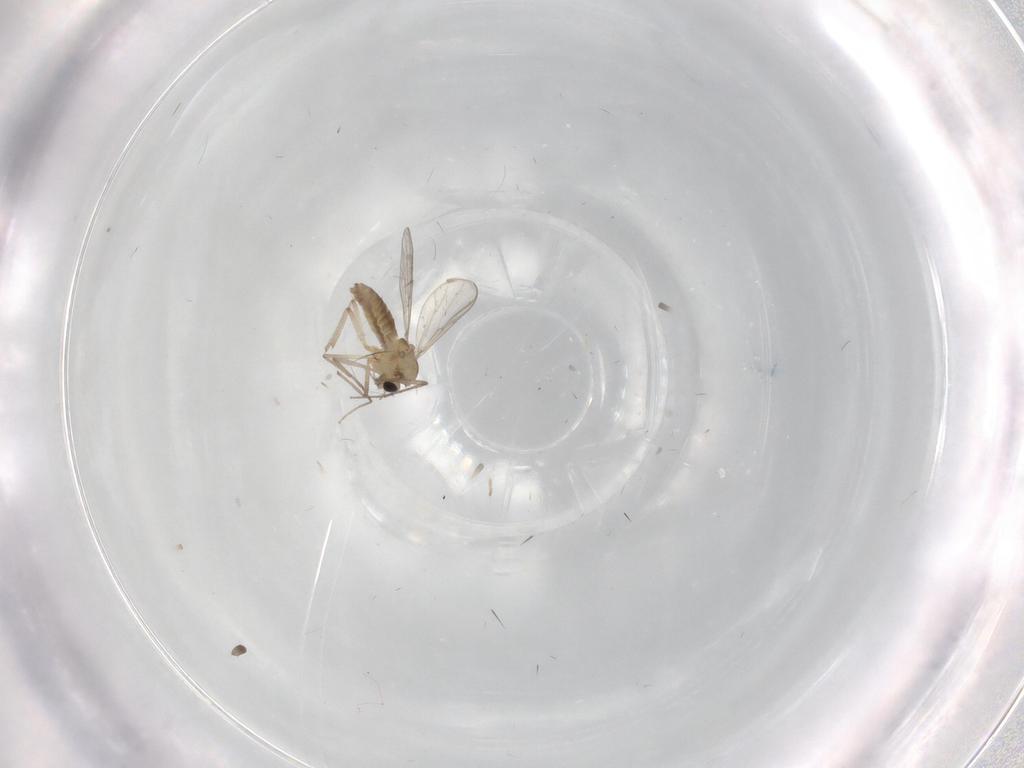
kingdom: Animalia
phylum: Arthropoda
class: Insecta
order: Diptera
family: Chironomidae
